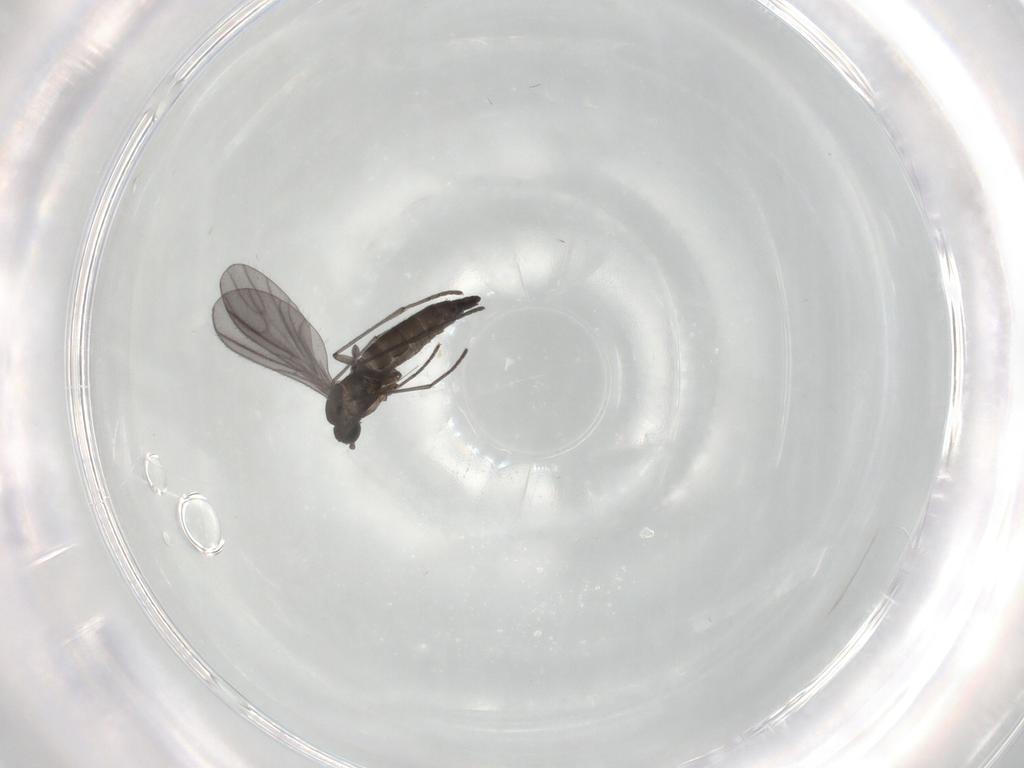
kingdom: Animalia
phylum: Arthropoda
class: Insecta
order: Diptera
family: Sciaridae
